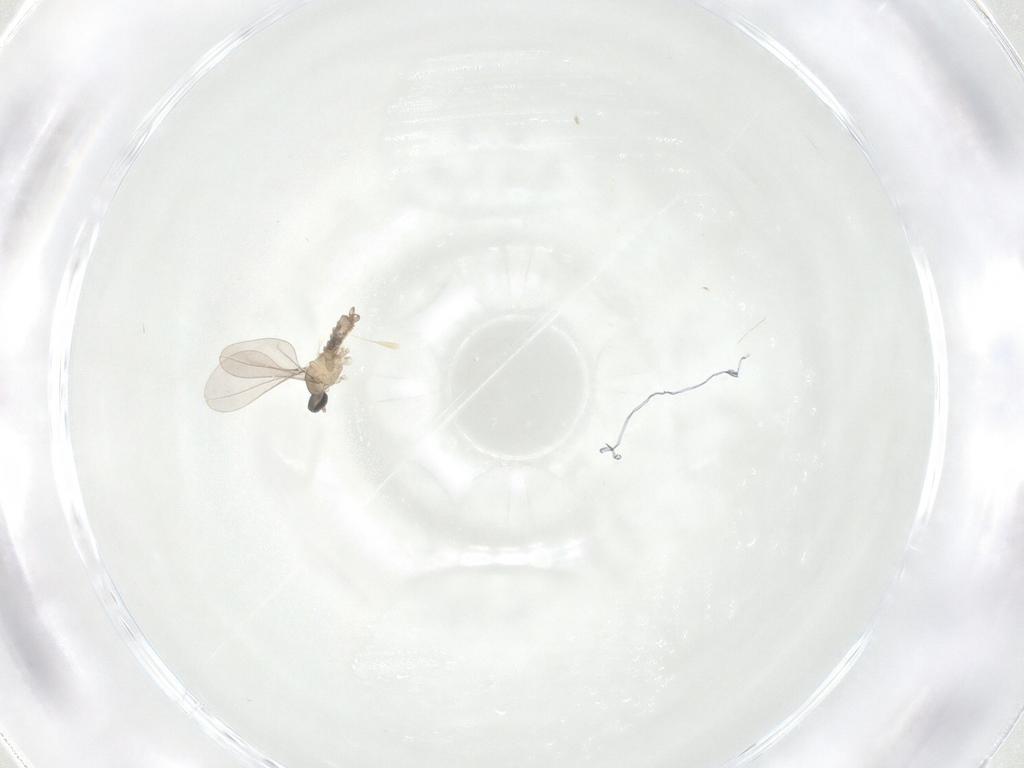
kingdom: Animalia
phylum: Arthropoda
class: Insecta
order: Diptera
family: Cecidomyiidae
